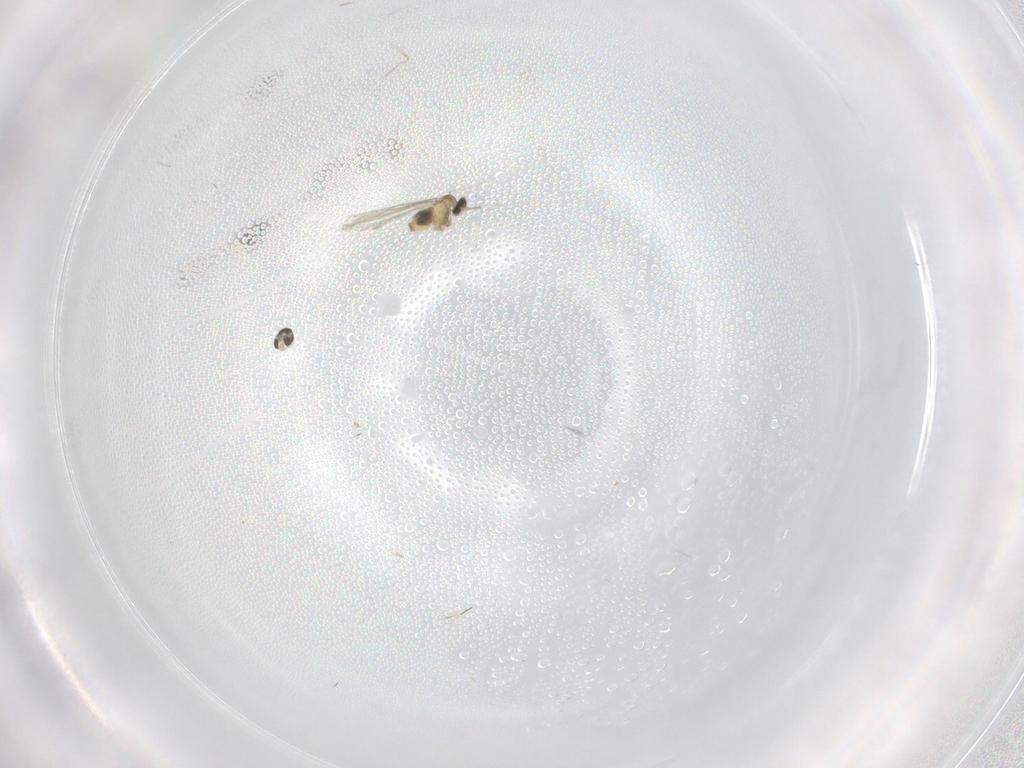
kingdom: Animalia
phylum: Arthropoda
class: Insecta
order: Diptera
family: Cecidomyiidae
